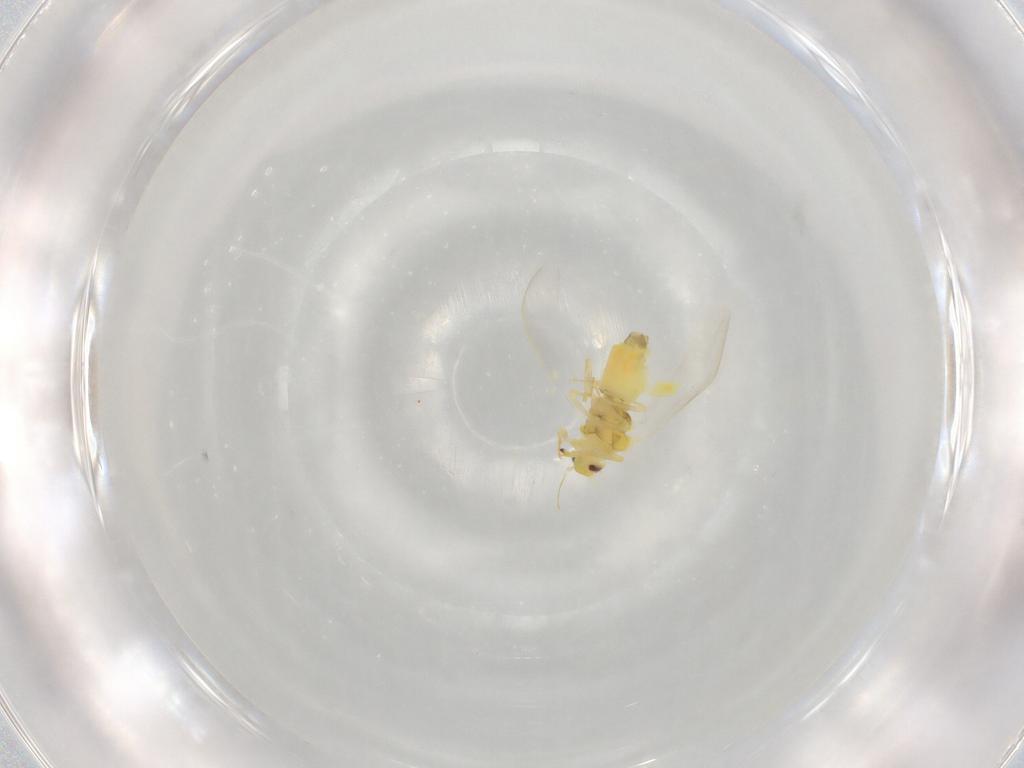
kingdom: Animalia
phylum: Arthropoda
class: Insecta
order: Hemiptera
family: Aleyrodidae
